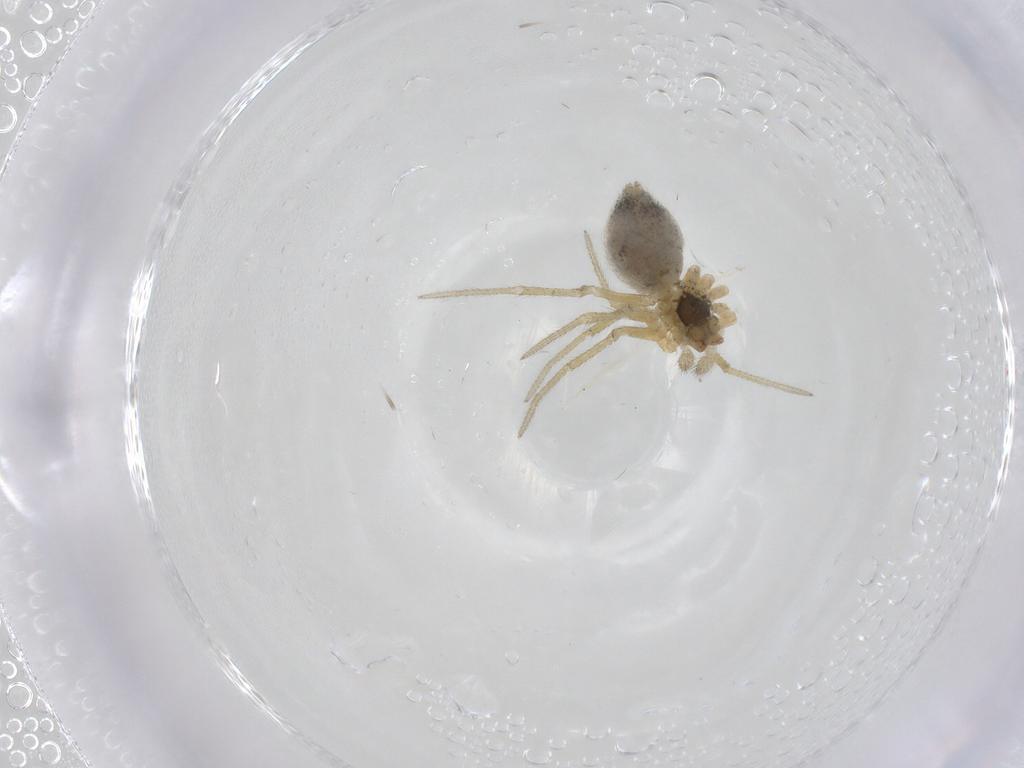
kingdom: Animalia
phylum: Arthropoda
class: Arachnida
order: Araneae
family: Linyphiidae
